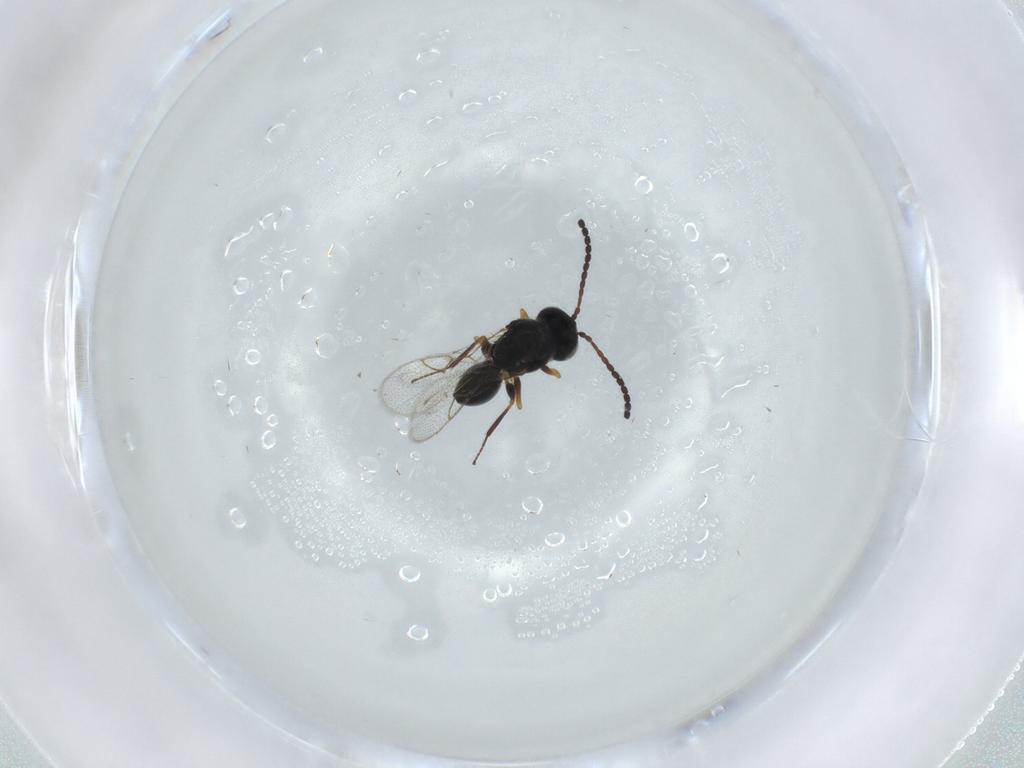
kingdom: Animalia
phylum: Arthropoda
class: Insecta
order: Hymenoptera
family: Figitidae
